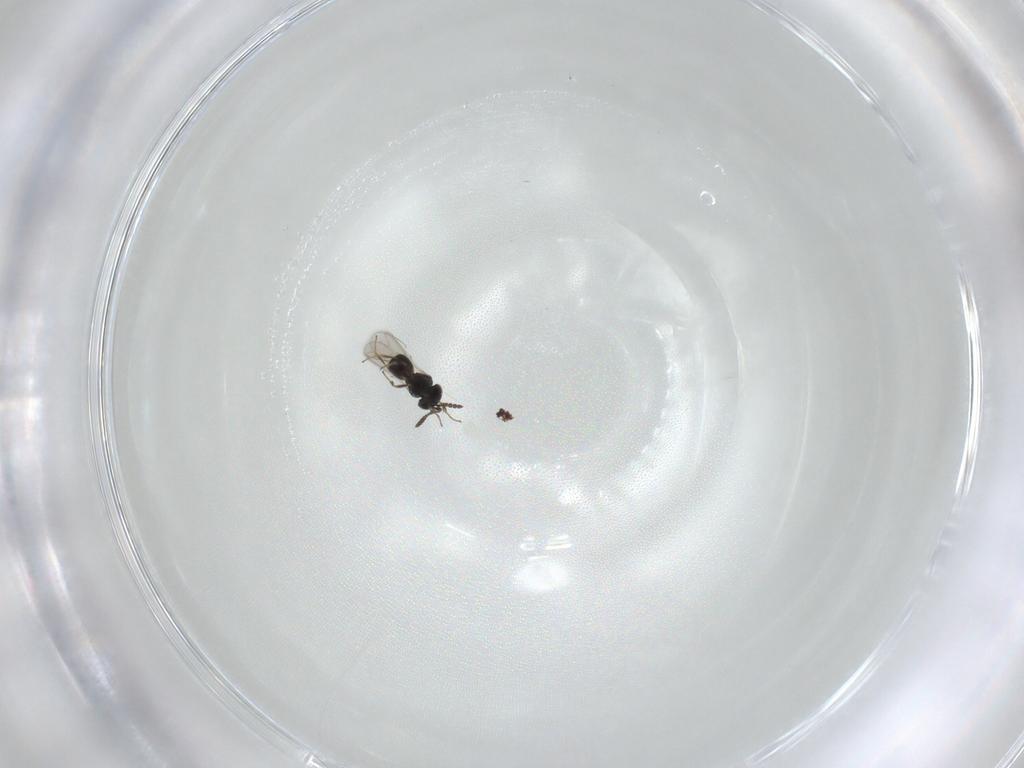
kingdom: Animalia
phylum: Arthropoda
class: Insecta
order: Hymenoptera
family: Scelionidae
